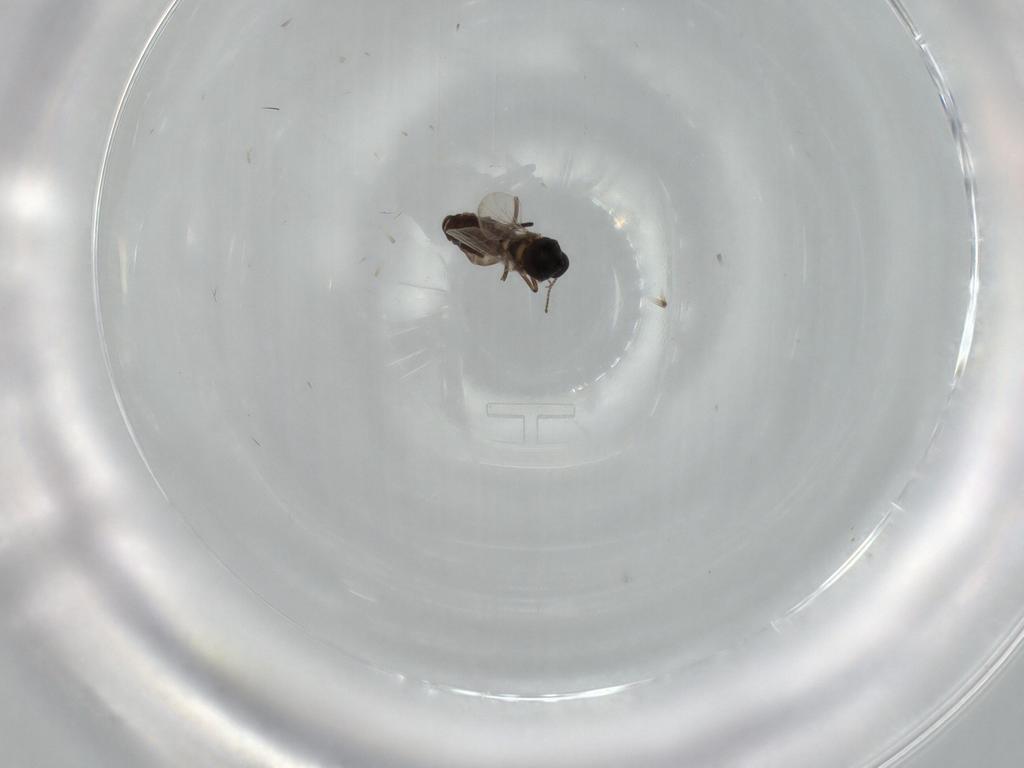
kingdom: Animalia
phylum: Arthropoda
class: Insecta
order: Diptera
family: Ceratopogonidae
